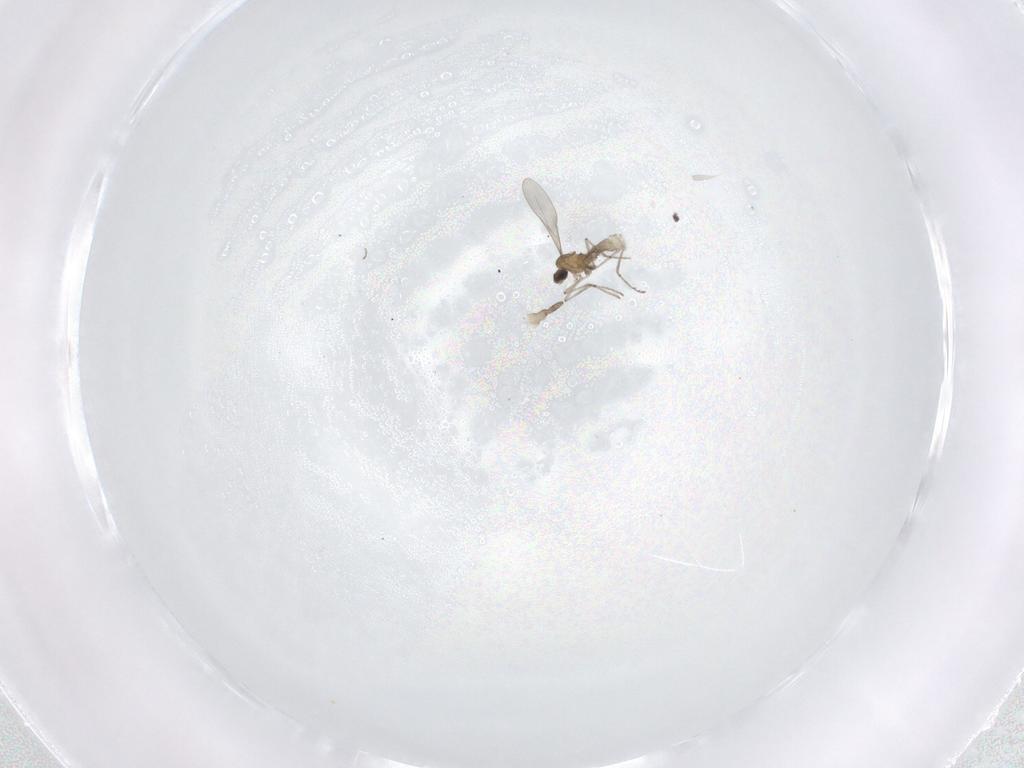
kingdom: Animalia
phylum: Arthropoda
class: Insecta
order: Diptera
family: Cecidomyiidae
